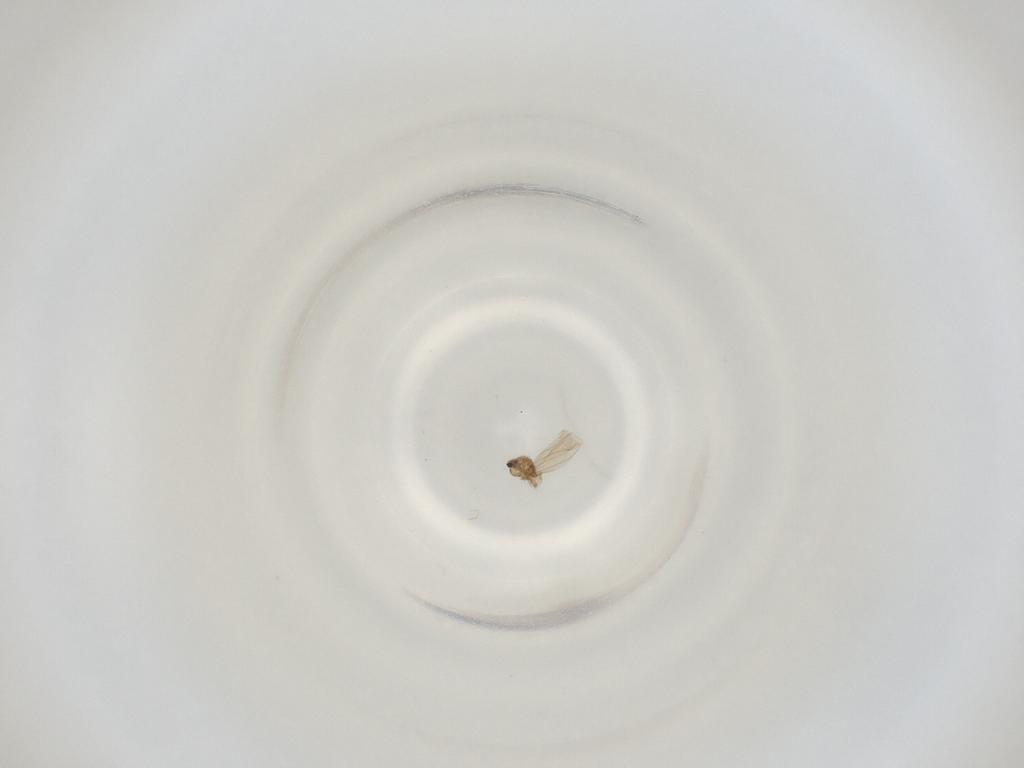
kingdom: Animalia
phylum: Arthropoda
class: Insecta
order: Diptera
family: Cecidomyiidae
